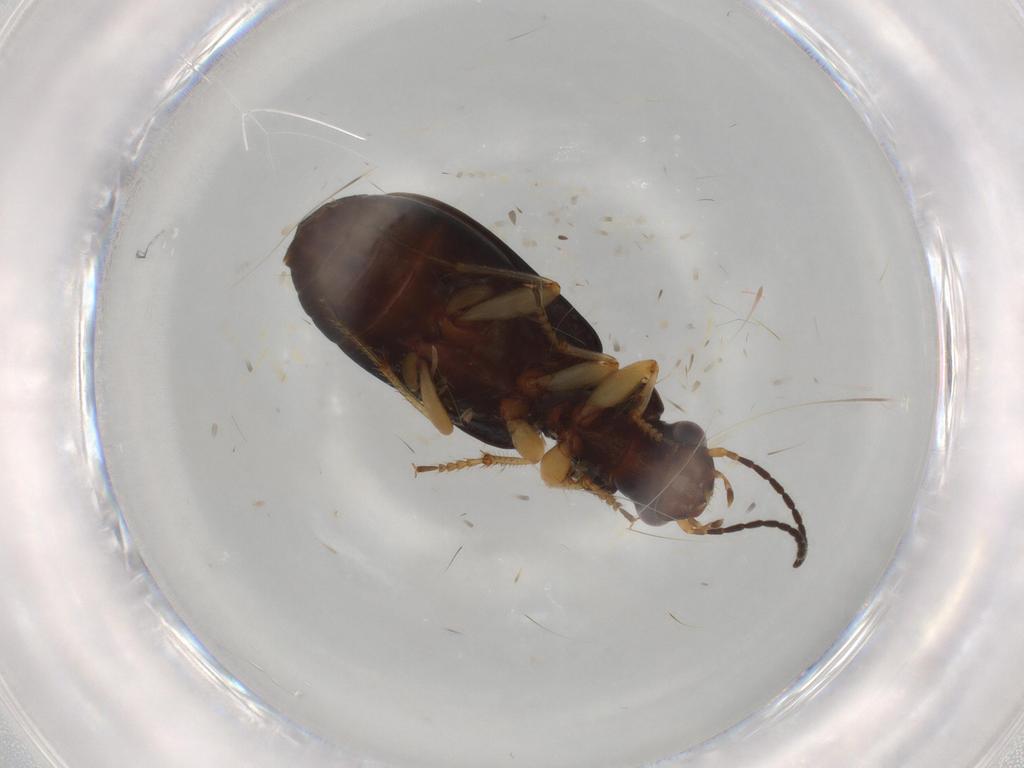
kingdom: Animalia
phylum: Arthropoda
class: Insecta
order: Coleoptera
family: Carabidae
